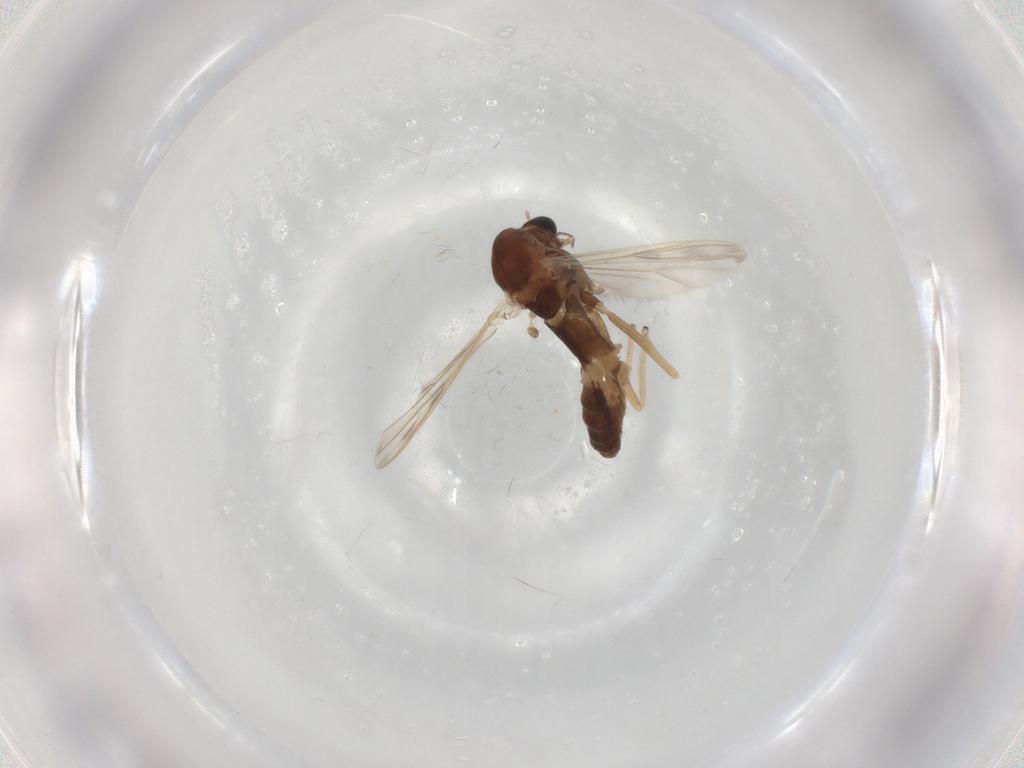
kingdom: Animalia
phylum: Arthropoda
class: Insecta
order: Diptera
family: Chironomidae
